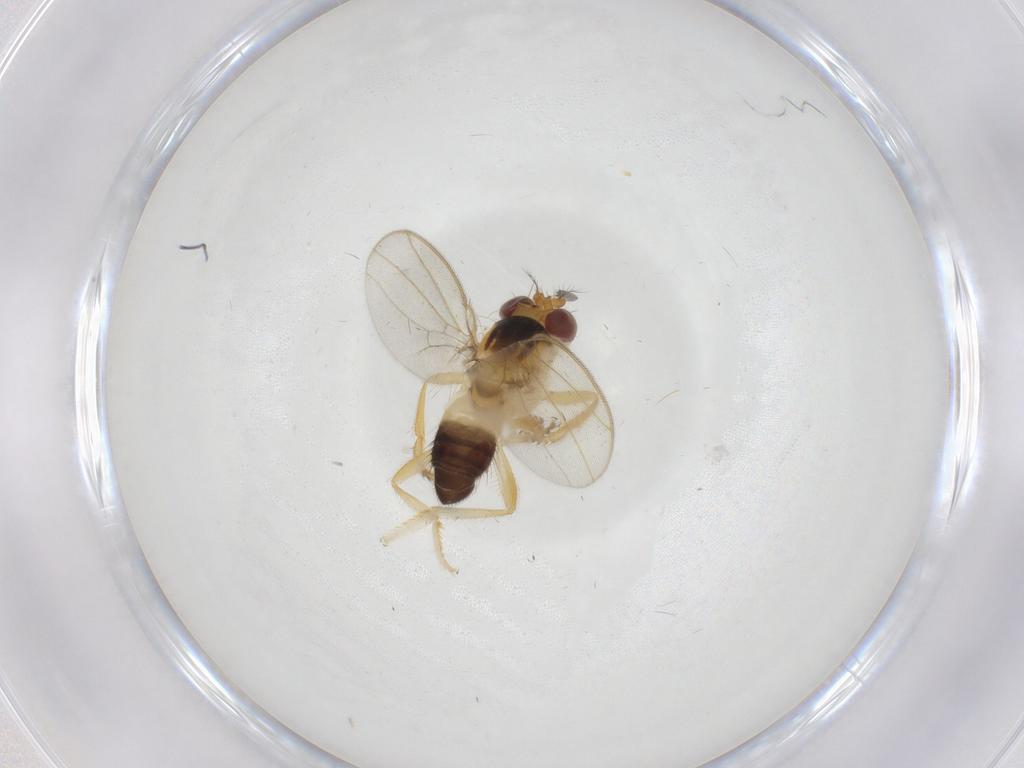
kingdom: Animalia
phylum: Arthropoda
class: Insecta
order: Diptera
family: Periscelididae
